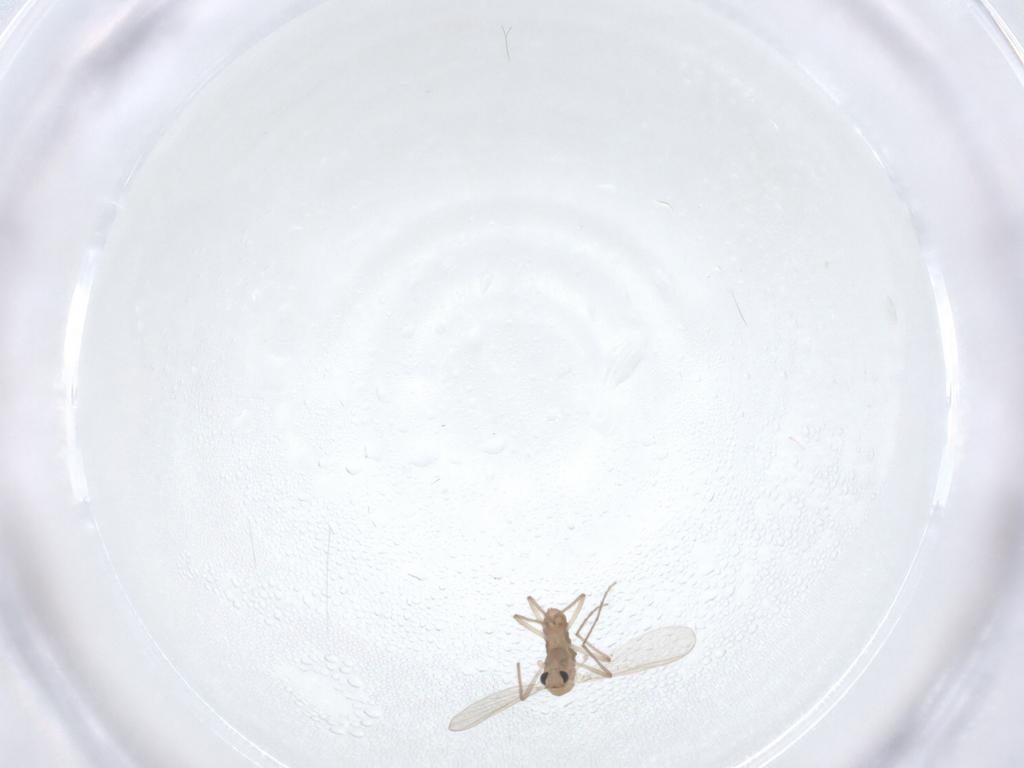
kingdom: Animalia
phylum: Arthropoda
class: Insecta
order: Diptera
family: Chironomidae
